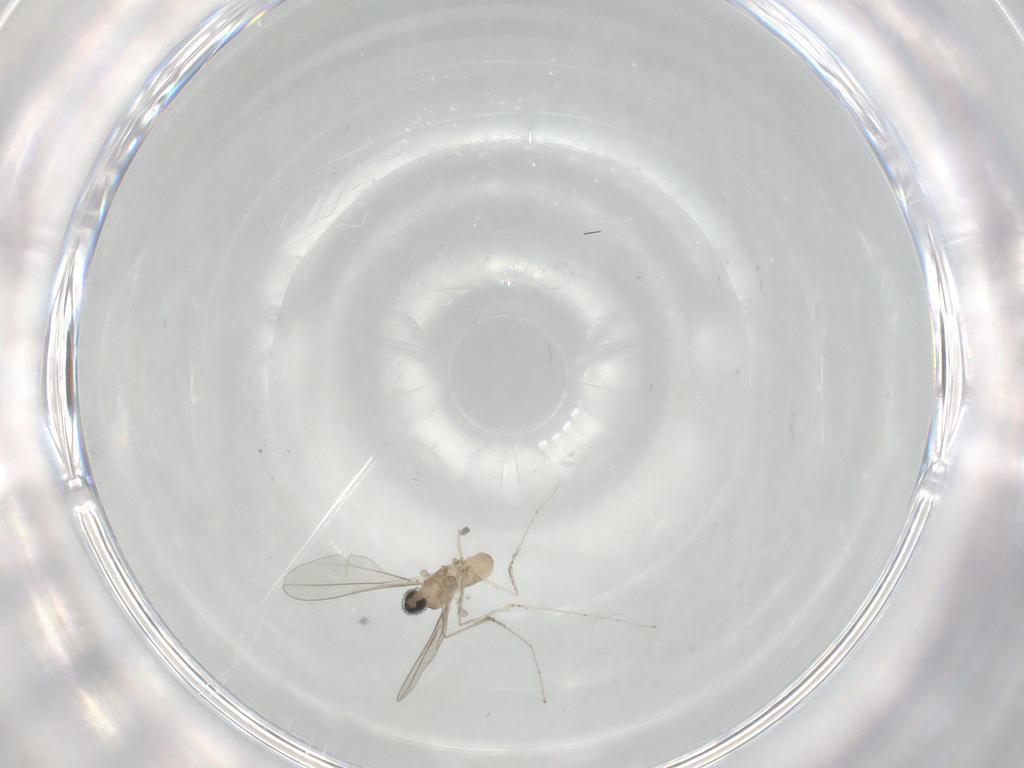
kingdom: Animalia
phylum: Arthropoda
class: Insecta
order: Diptera
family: Cecidomyiidae
